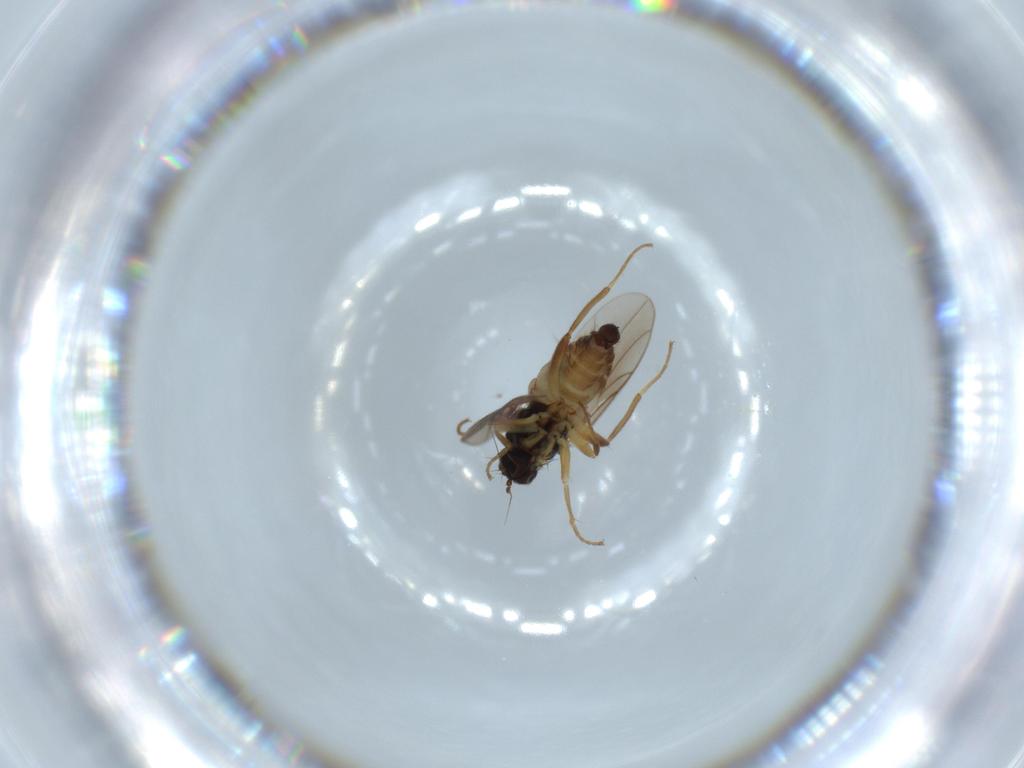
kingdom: Animalia
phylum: Arthropoda
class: Insecta
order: Diptera
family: Hybotidae
